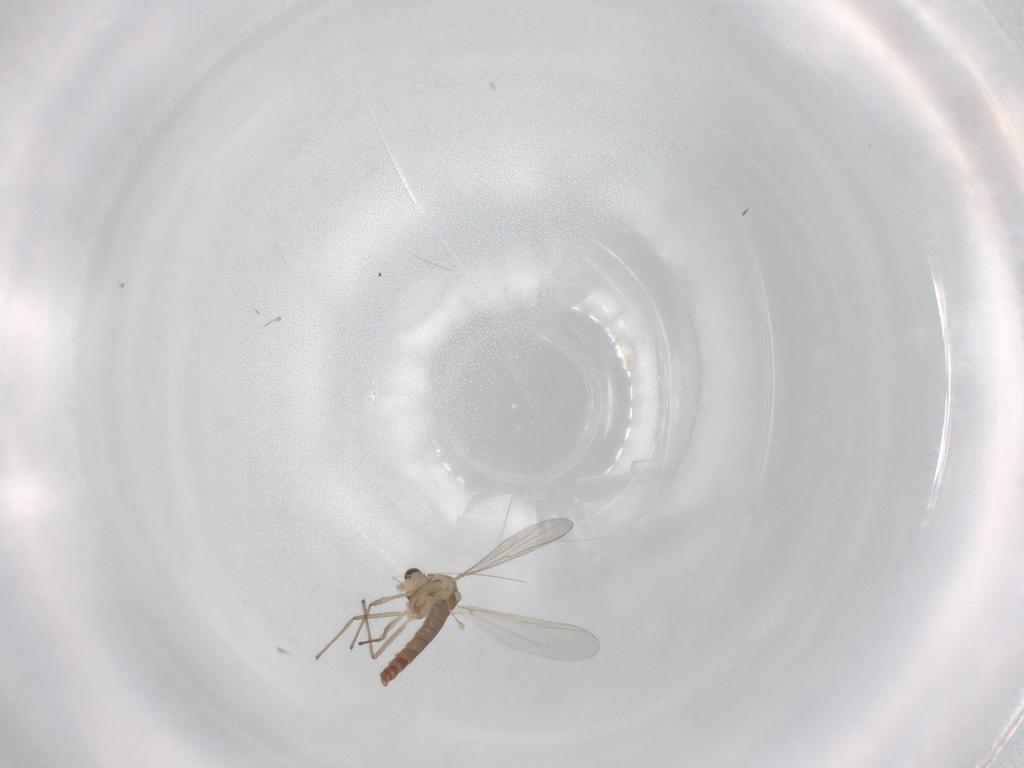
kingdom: Animalia
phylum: Arthropoda
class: Insecta
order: Diptera
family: Chironomidae
